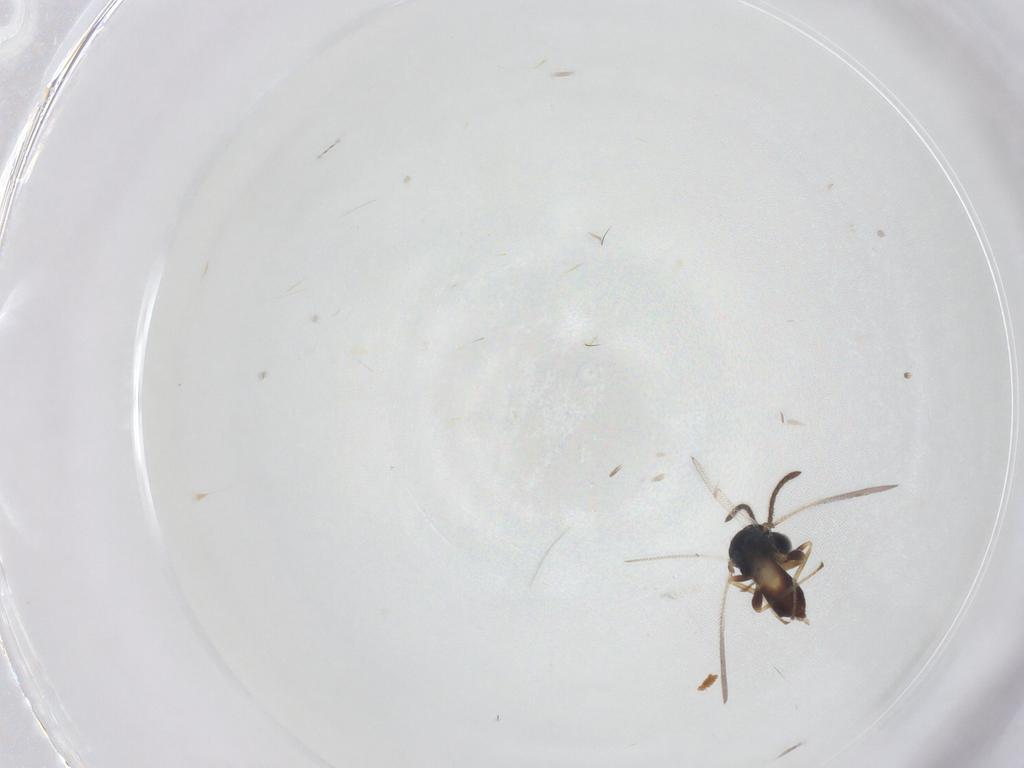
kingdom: Animalia
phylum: Arthropoda
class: Insecta
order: Hymenoptera
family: Pteromalidae
